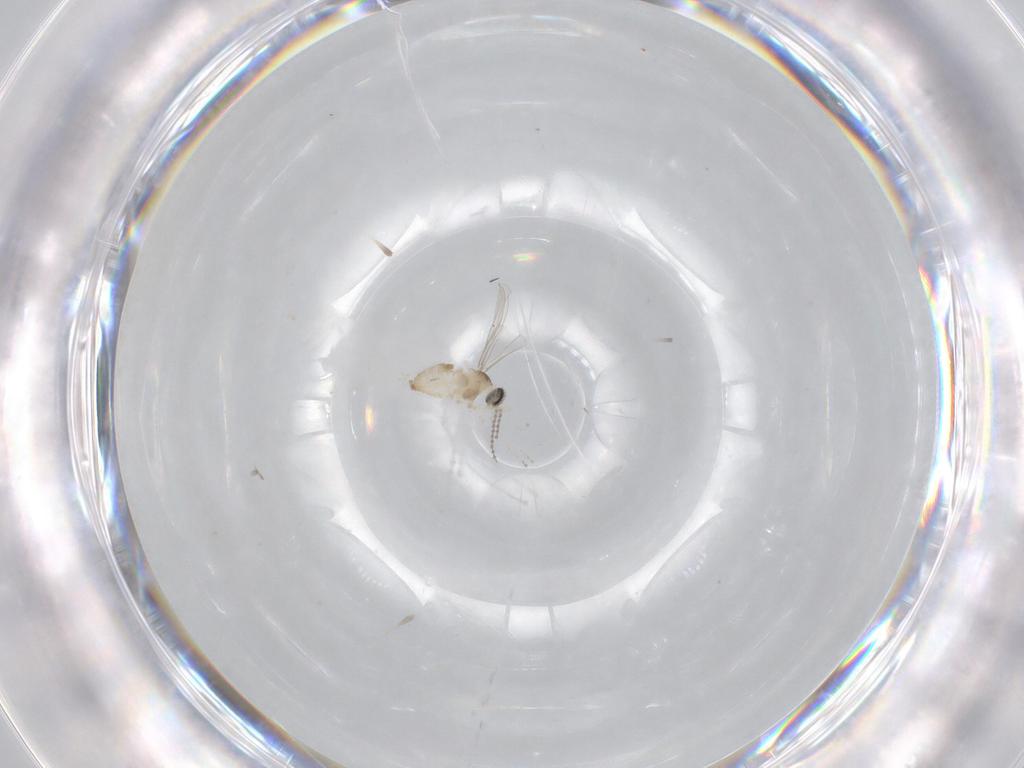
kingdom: Animalia
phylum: Arthropoda
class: Insecta
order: Diptera
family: Cecidomyiidae
